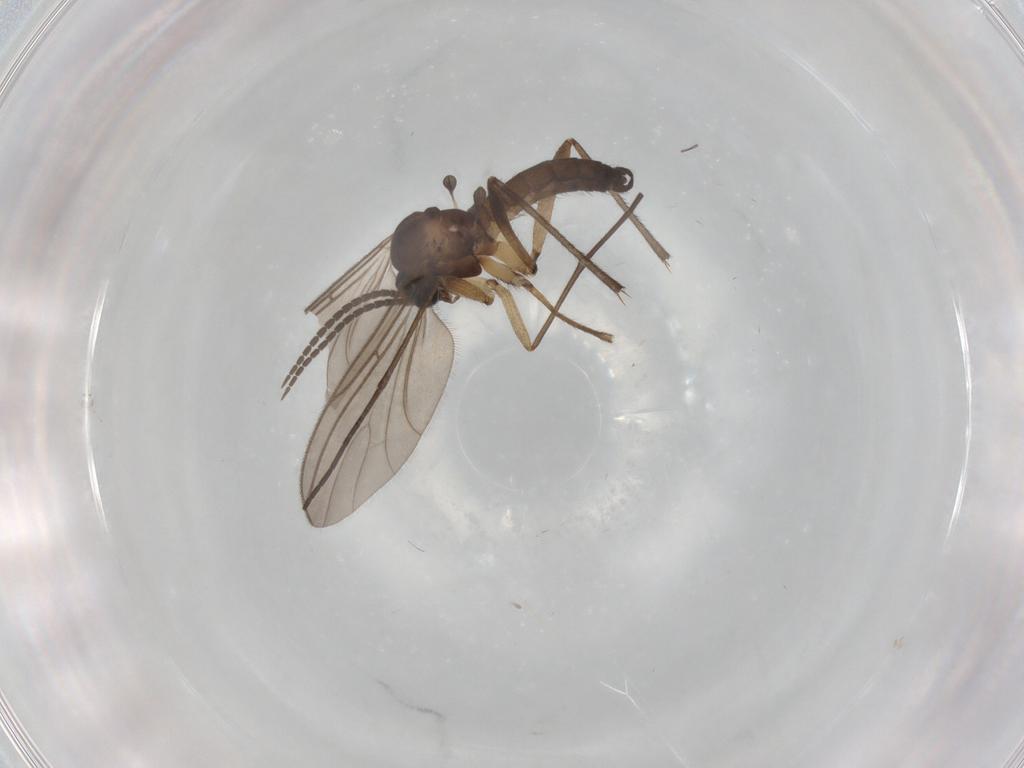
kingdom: Animalia
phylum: Arthropoda
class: Insecta
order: Diptera
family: Sciaridae
